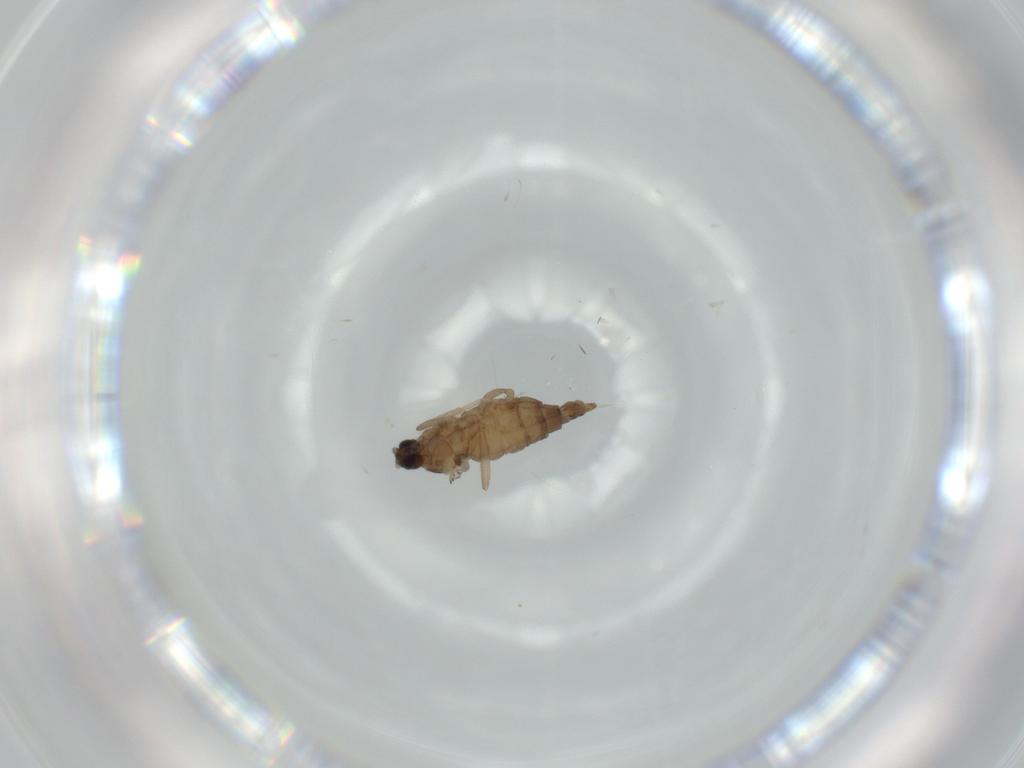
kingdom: Animalia
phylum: Arthropoda
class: Insecta
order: Diptera
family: Cecidomyiidae
